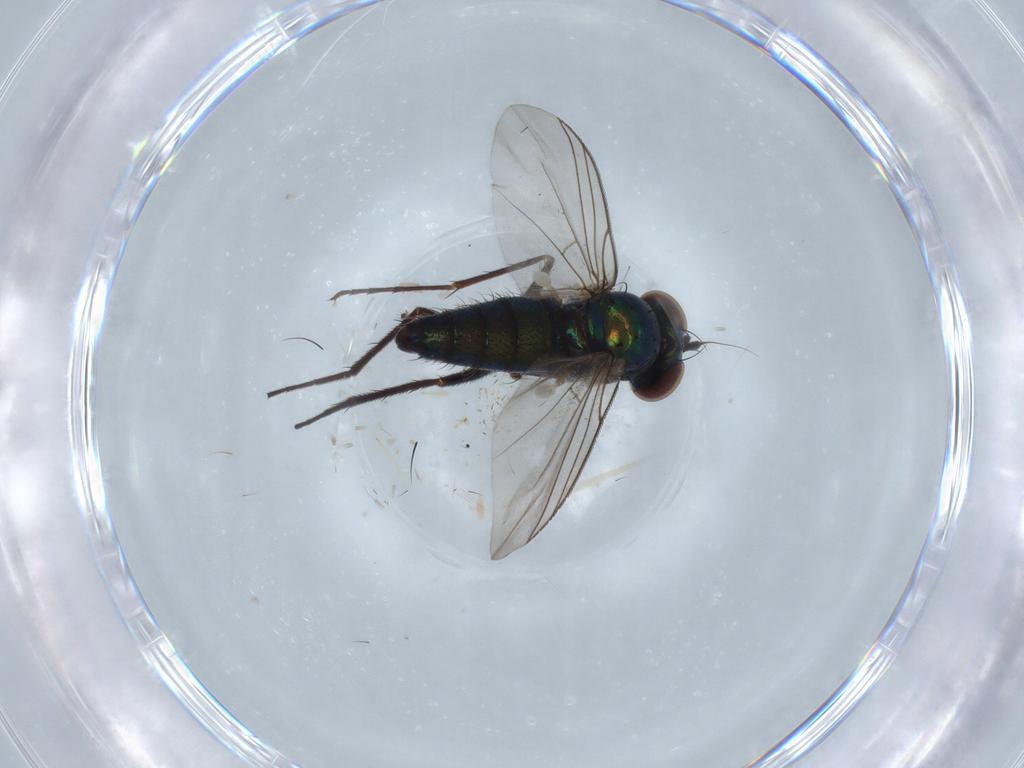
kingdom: Animalia
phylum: Arthropoda
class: Insecta
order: Diptera
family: Dolichopodidae
